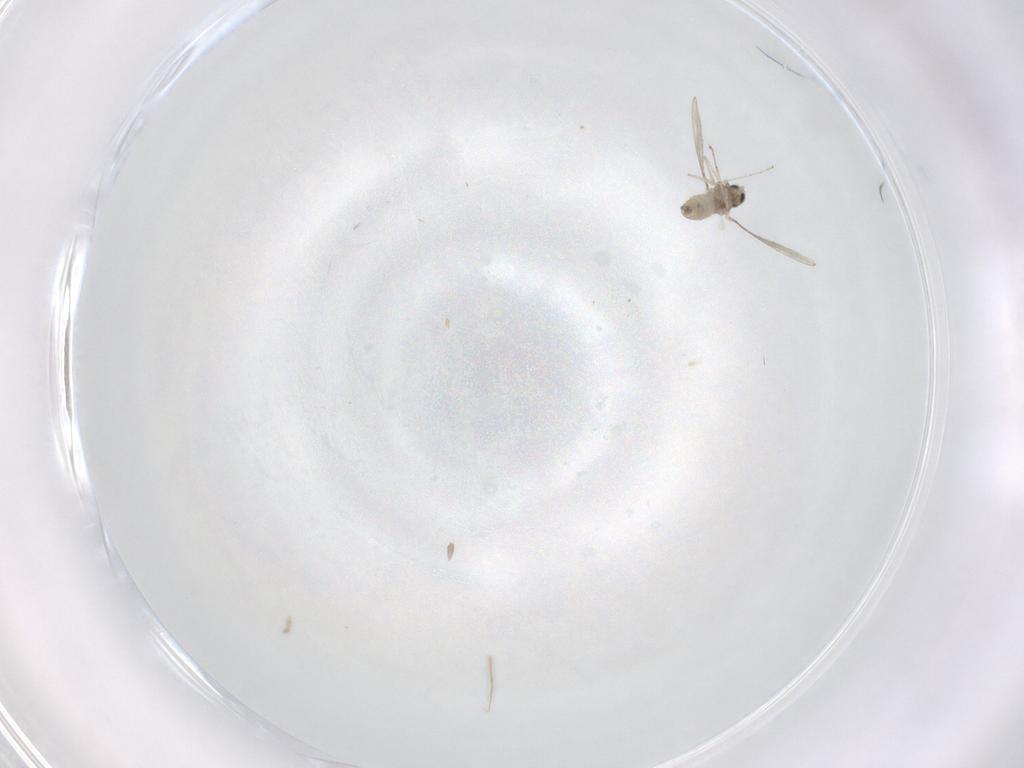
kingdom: Animalia
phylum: Arthropoda
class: Insecta
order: Diptera
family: Cecidomyiidae
